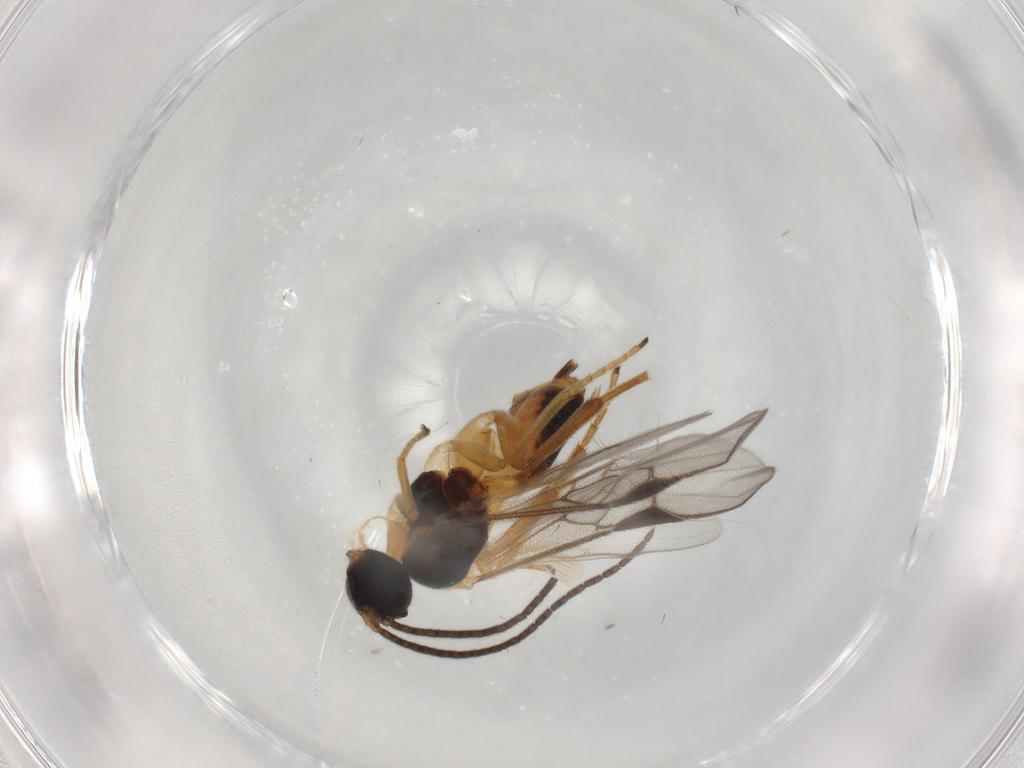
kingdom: Animalia
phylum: Arthropoda
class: Insecta
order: Hymenoptera
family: Braconidae
